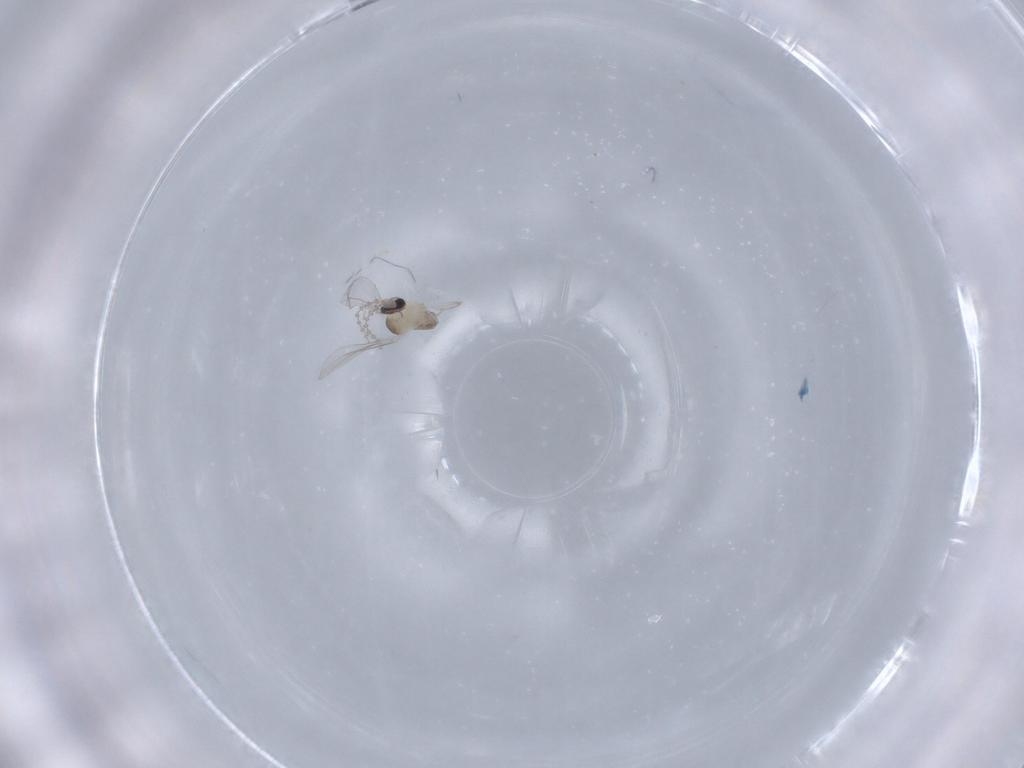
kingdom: Animalia
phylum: Arthropoda
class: Insecta
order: Diptera
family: Cecidomyiidae
